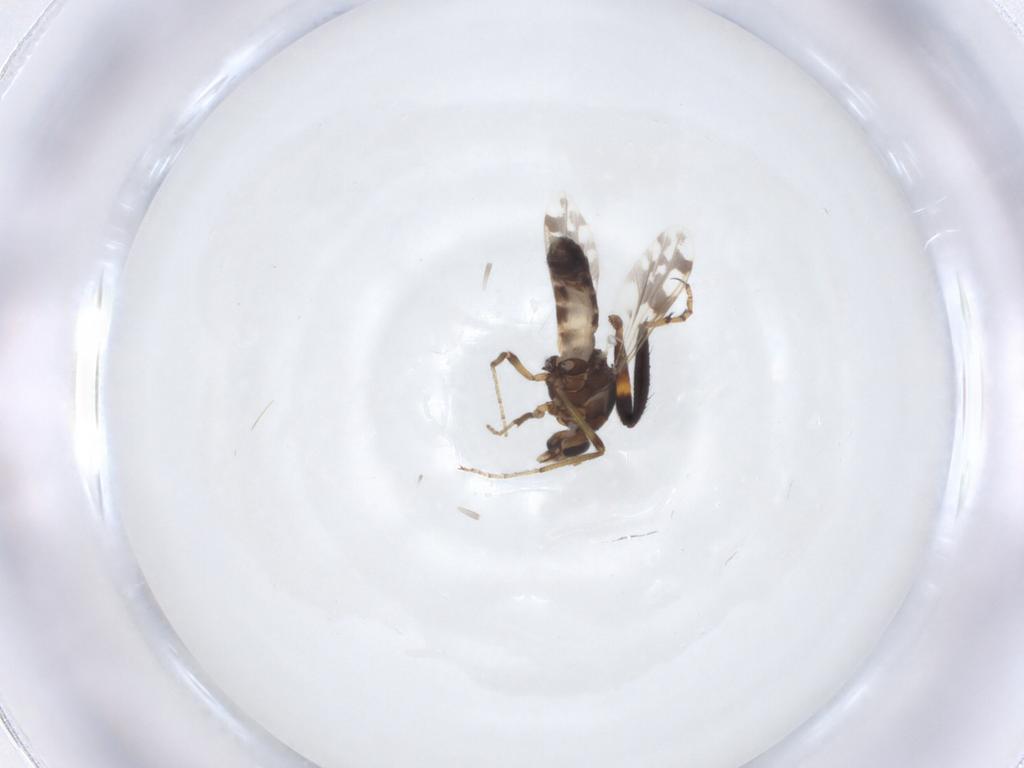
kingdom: Animalia
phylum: Arthropoda
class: Insecta
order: Diptera
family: Ceratopogonidae
